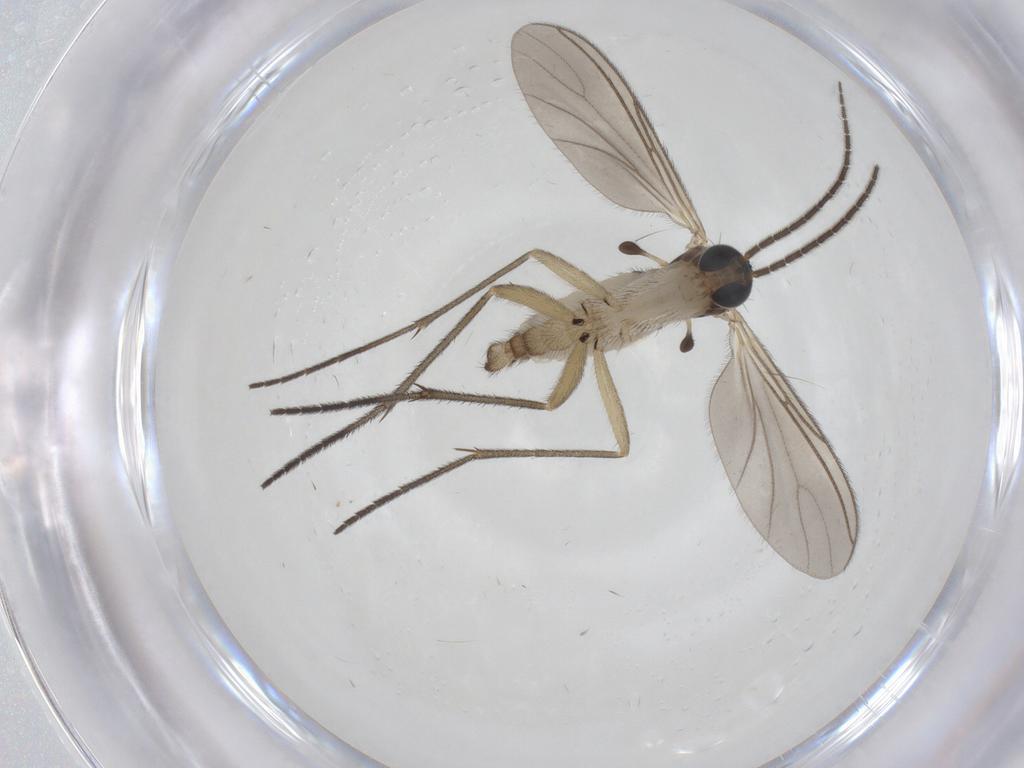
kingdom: Animalia
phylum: Arthropoda
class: Insecta
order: Diptera
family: Sciaridae
